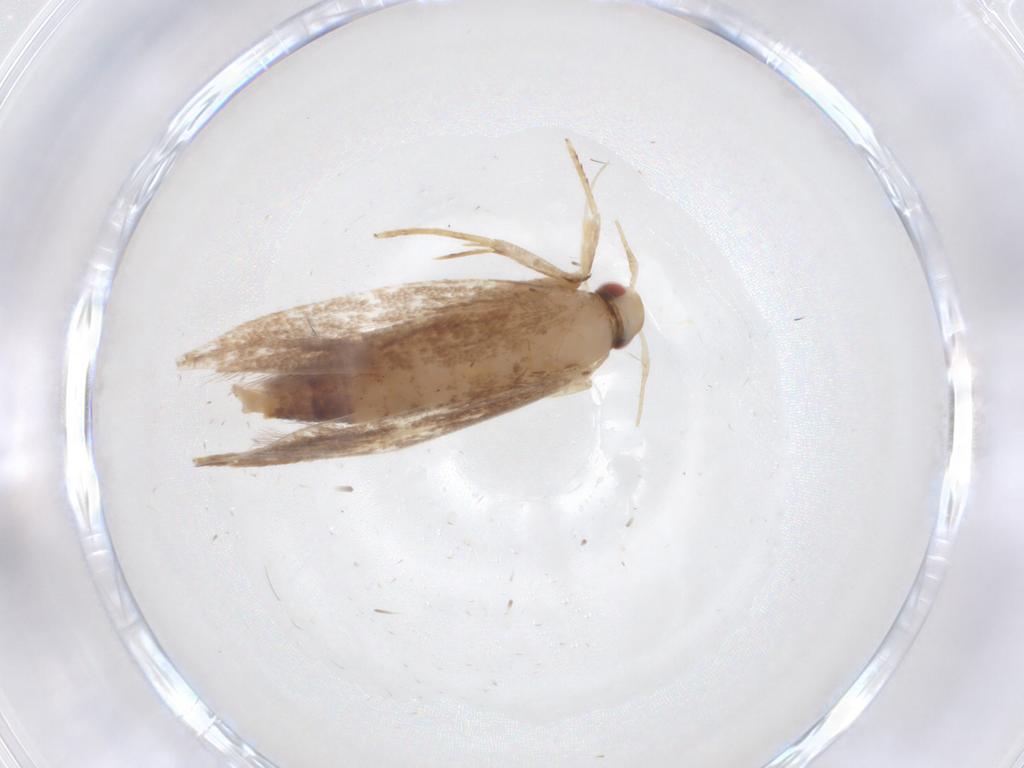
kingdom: Animalia
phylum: Arthropoda
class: Insecta
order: Lepidoptera
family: Cosmopterigidae
